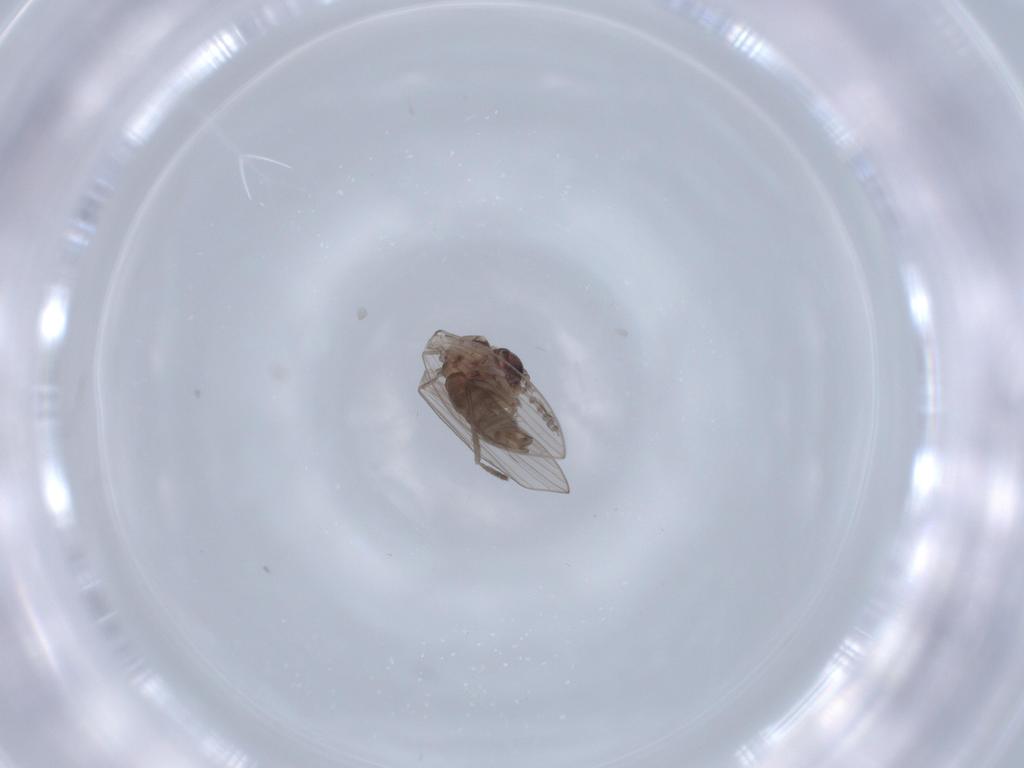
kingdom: Animalia
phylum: Arthropoda
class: Insecta
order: Diptera
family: Psychodidae
